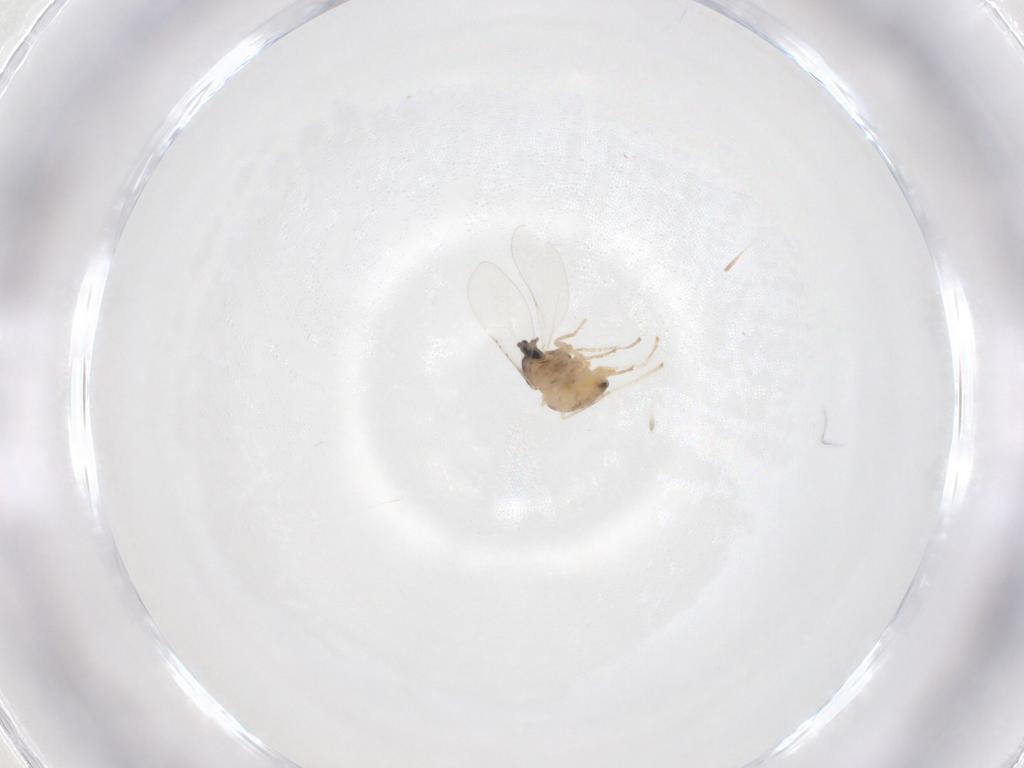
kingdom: Animalia
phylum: Arthropoda
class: Insecta
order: Diptera
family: Cecidomyiidae
